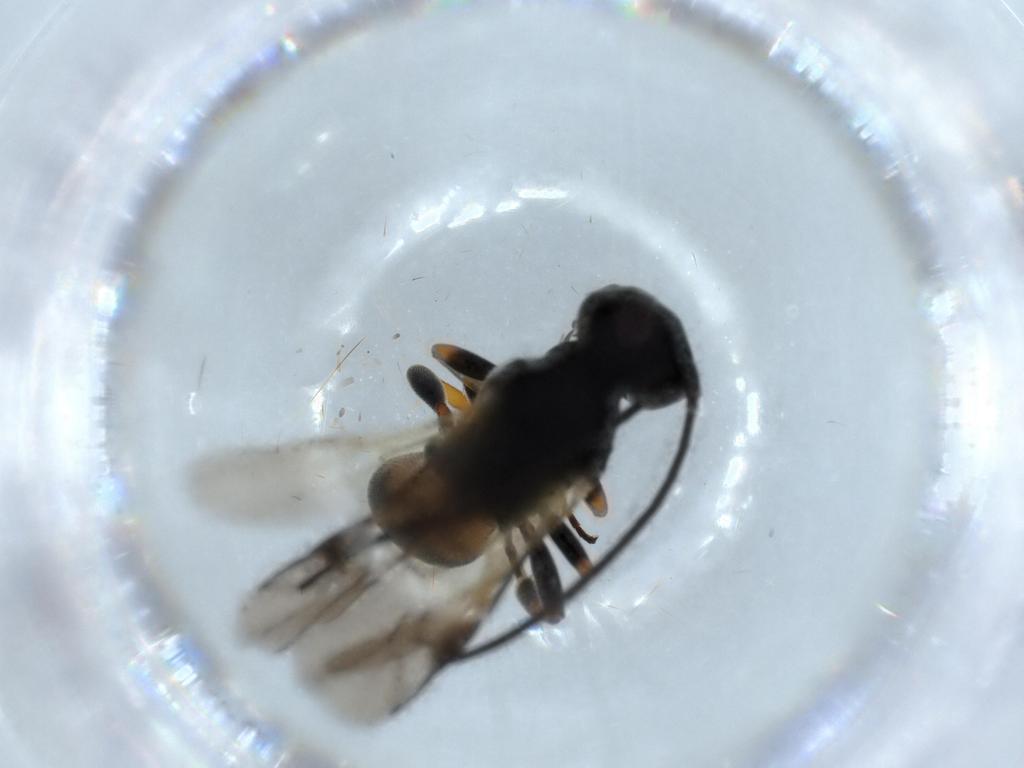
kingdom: Animalia
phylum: Arthropoda
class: Insecta
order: Hymenoptera
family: Braconidae
